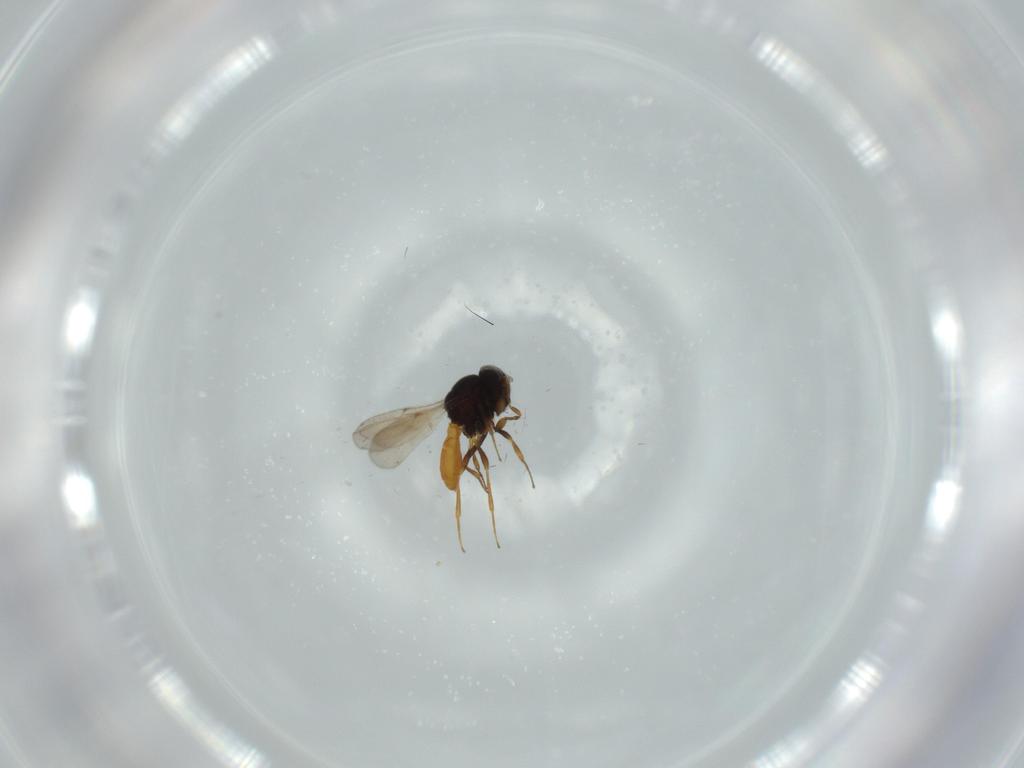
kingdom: Animalia
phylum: Arthropoda
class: Insecta
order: Hymenoptera
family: Scelionidae
